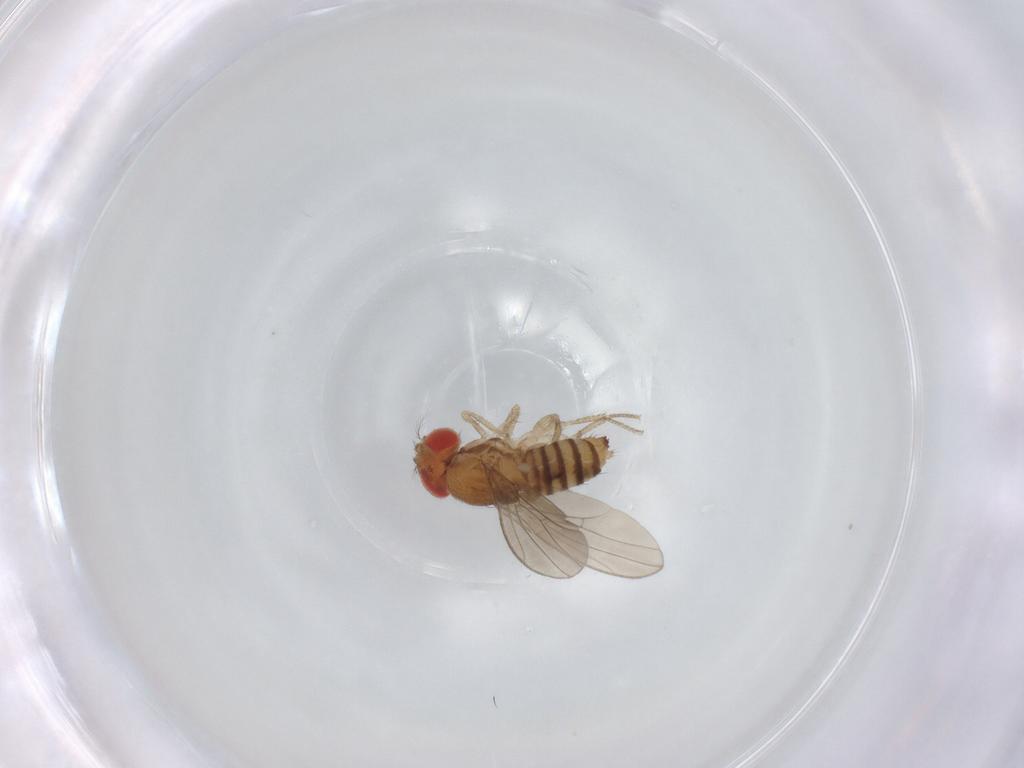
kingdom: Animalia
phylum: Arthropoda
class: Insecta
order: Diptera
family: Drosophilidae
